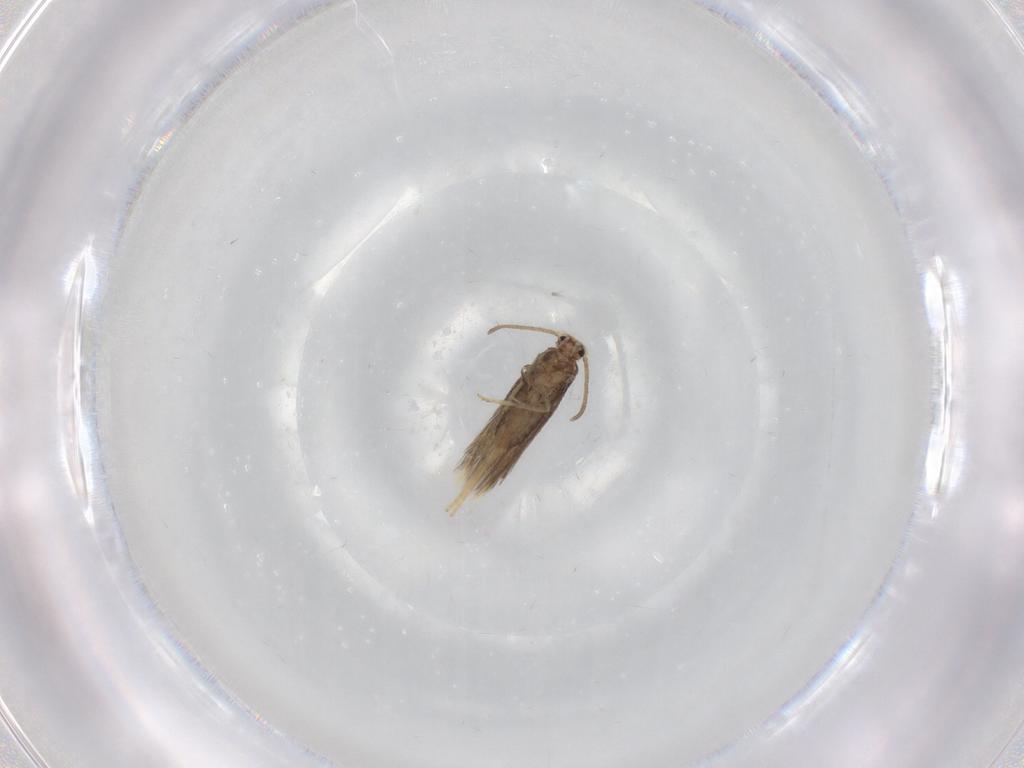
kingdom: Animalia
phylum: Arthropoda
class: Insecta
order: Lepidoptera
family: Nepticulidae
